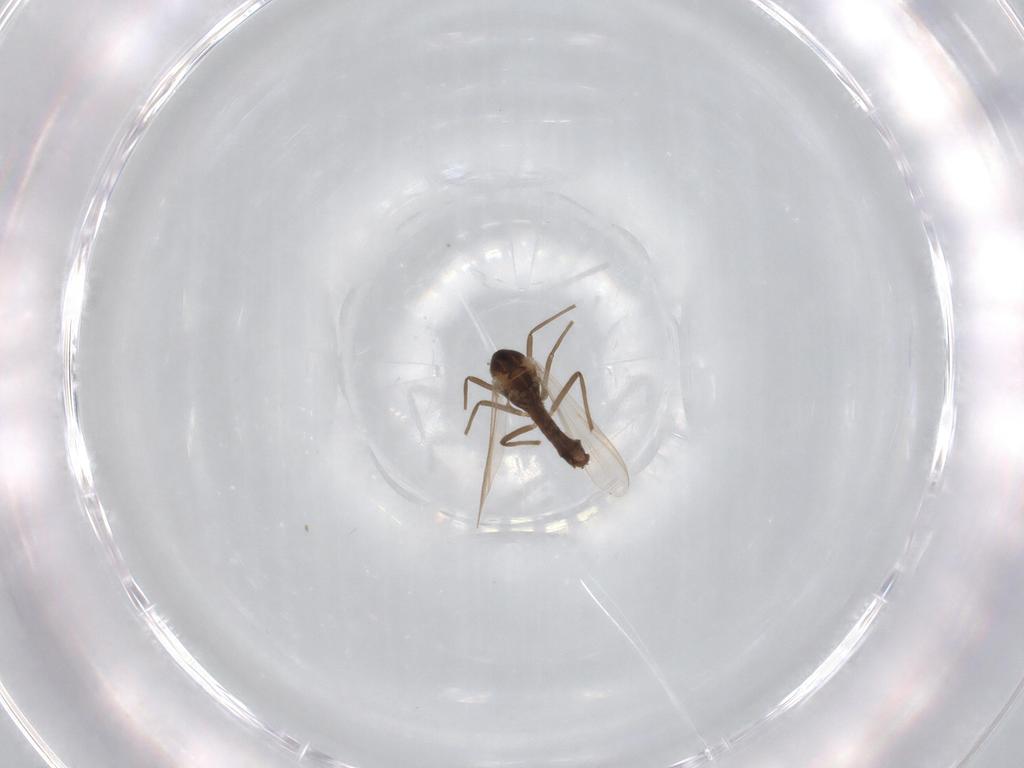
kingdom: Animalia
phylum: Arthropoda
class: Insecta
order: Diptera
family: Chironomidae
